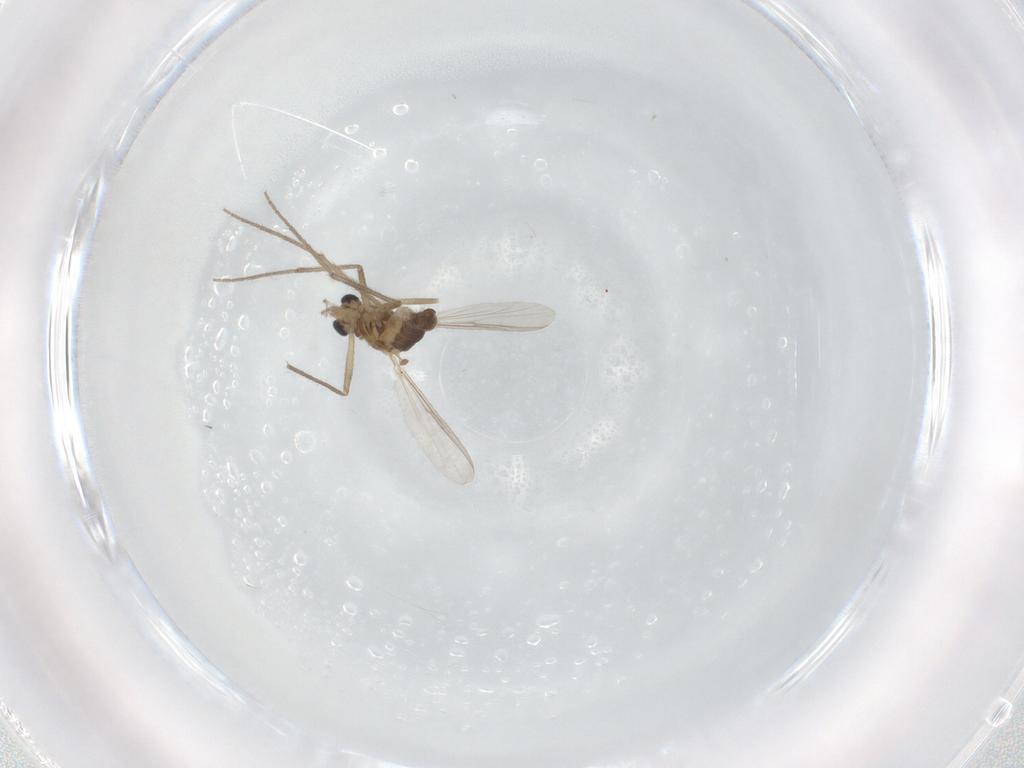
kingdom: Animalia
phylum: Arthropoda
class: Insecta
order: Diptera
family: Chironomidae
